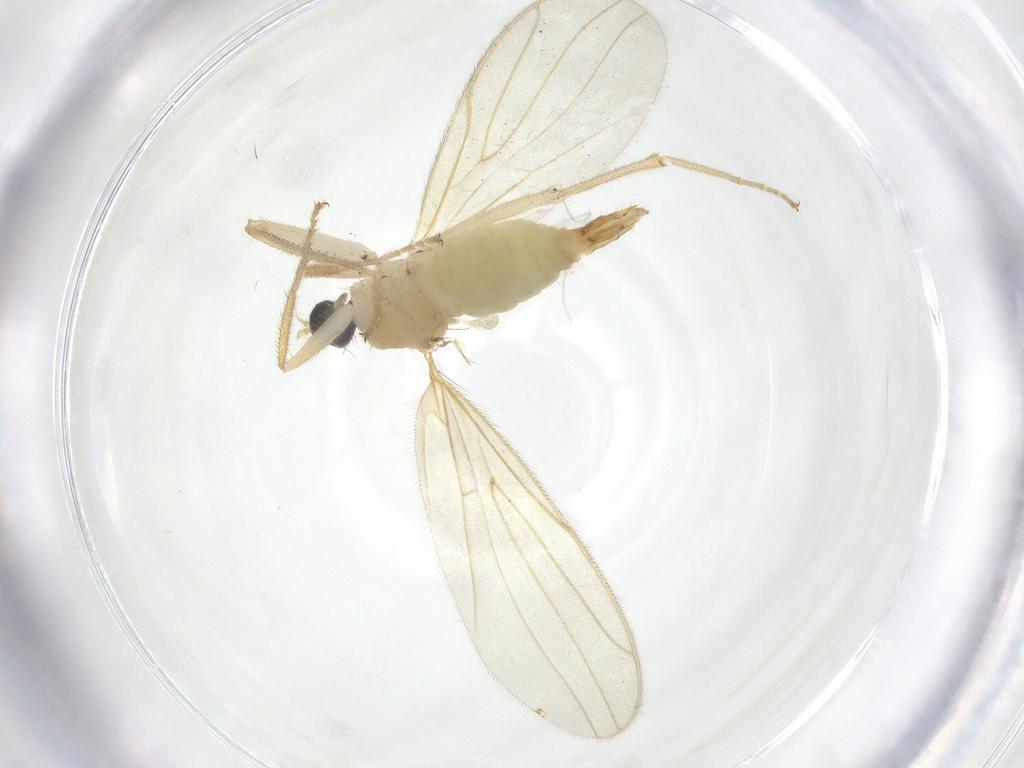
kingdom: Animalia
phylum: Arthropoda
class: Insecta
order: Diptera
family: Hybotidae
